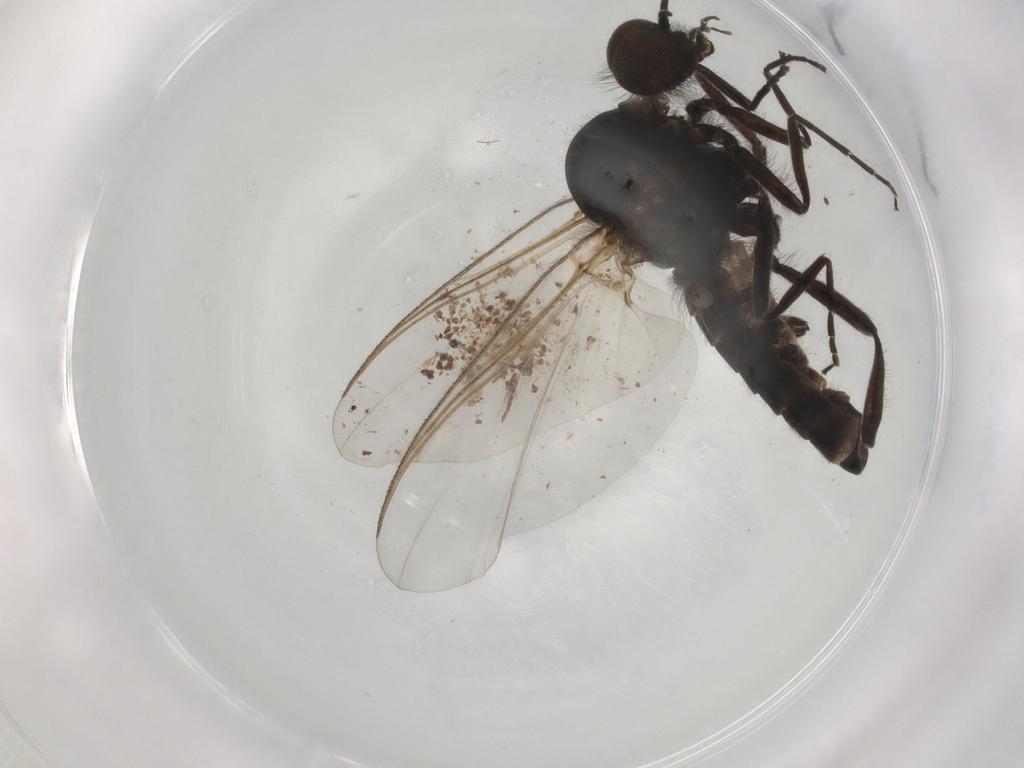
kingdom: Animalia
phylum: Arthropoda
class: Insecta
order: Diptera
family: Chironomidae
